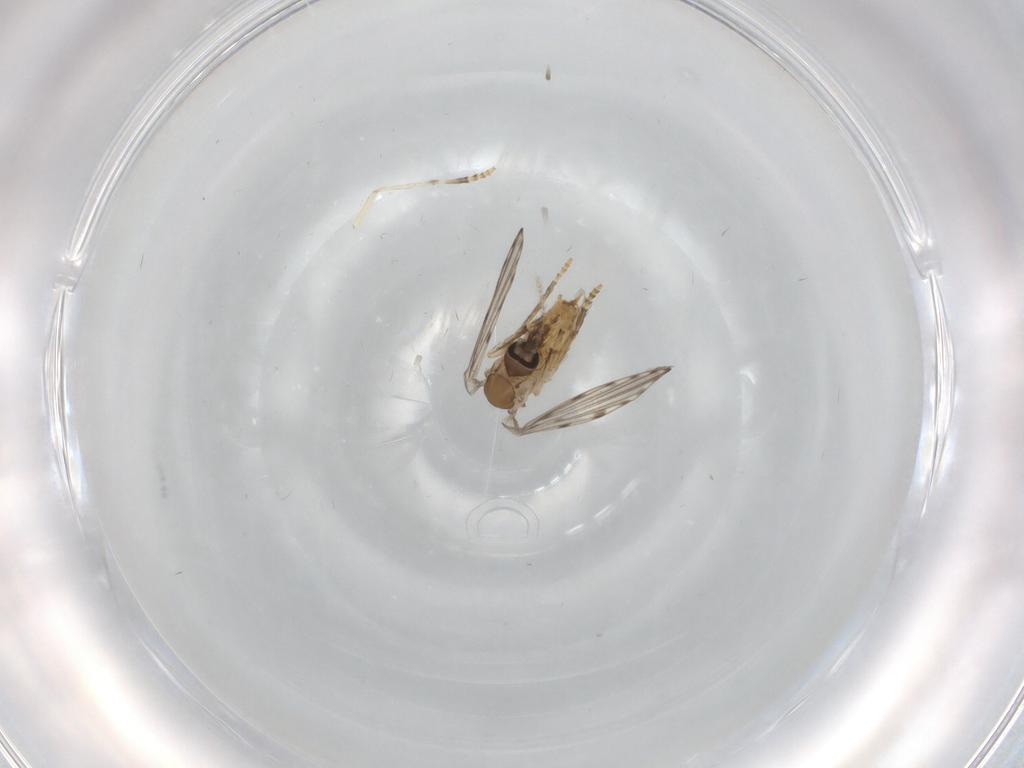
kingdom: Animalia
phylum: Arthropoda
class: Insecta
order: Diptera
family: Psychodidae
